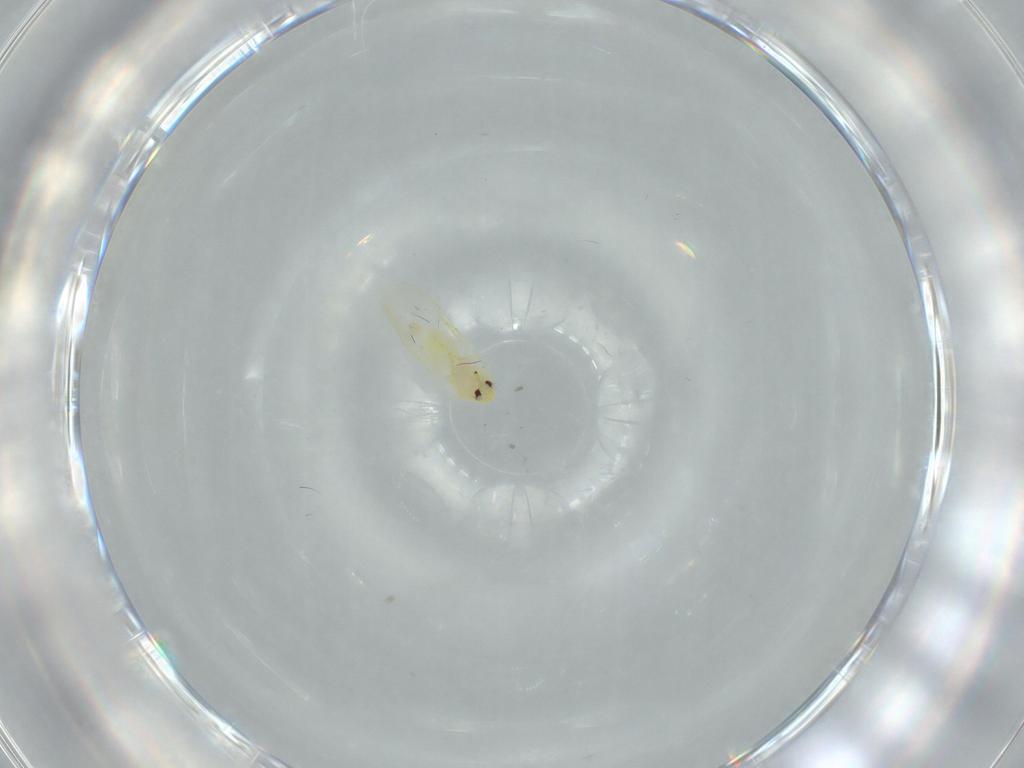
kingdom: Animalia
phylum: Arthropoda
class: Insecta
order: Hemiptera
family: Aleyrodidae
